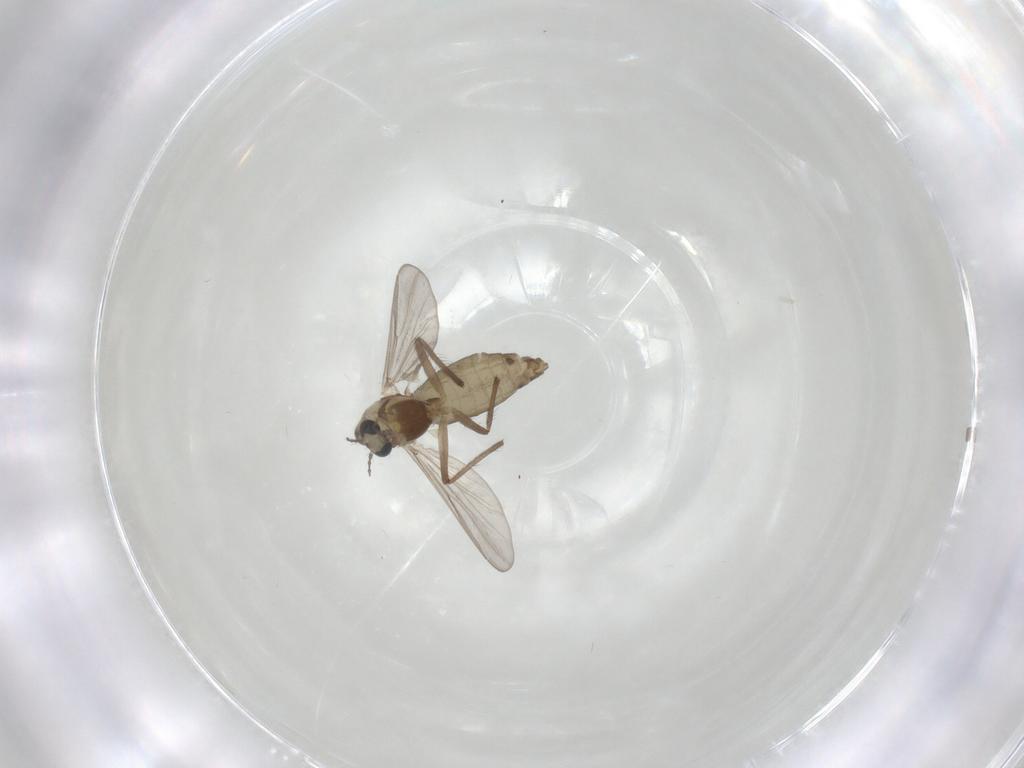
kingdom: Animalia
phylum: Arthropoda
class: Insecta
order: Diptera
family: Chironomidae
